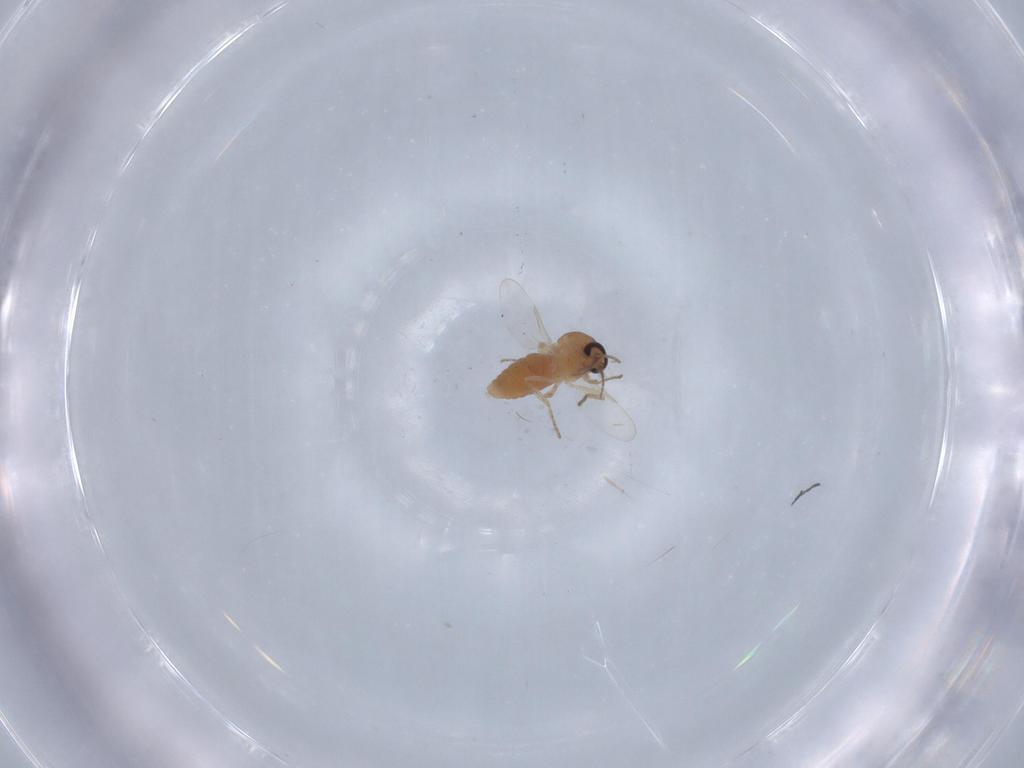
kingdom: Animalia
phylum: Arthropoda
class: Insecta
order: Diptera
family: Ceratopogonidae
